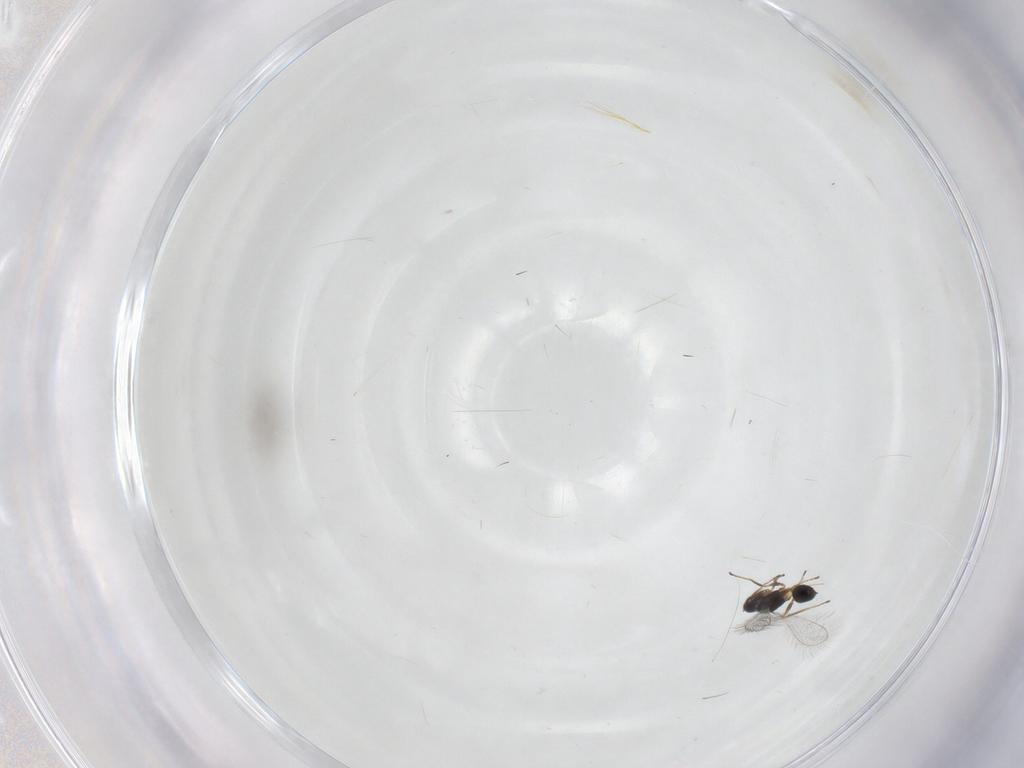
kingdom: Animalia
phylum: Arthropoda
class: Insecta
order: Hymenoptera
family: Mymaridae
